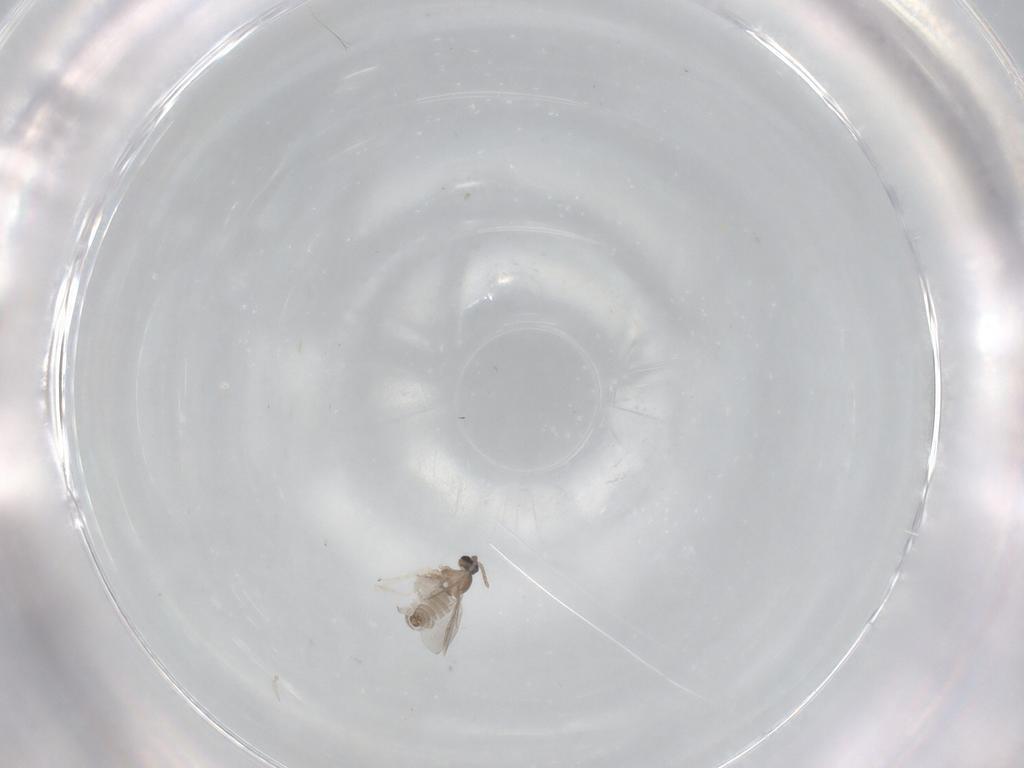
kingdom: Animalia
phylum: Arthropoda
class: Insecta
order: Diptera
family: Cecidomyiidae
